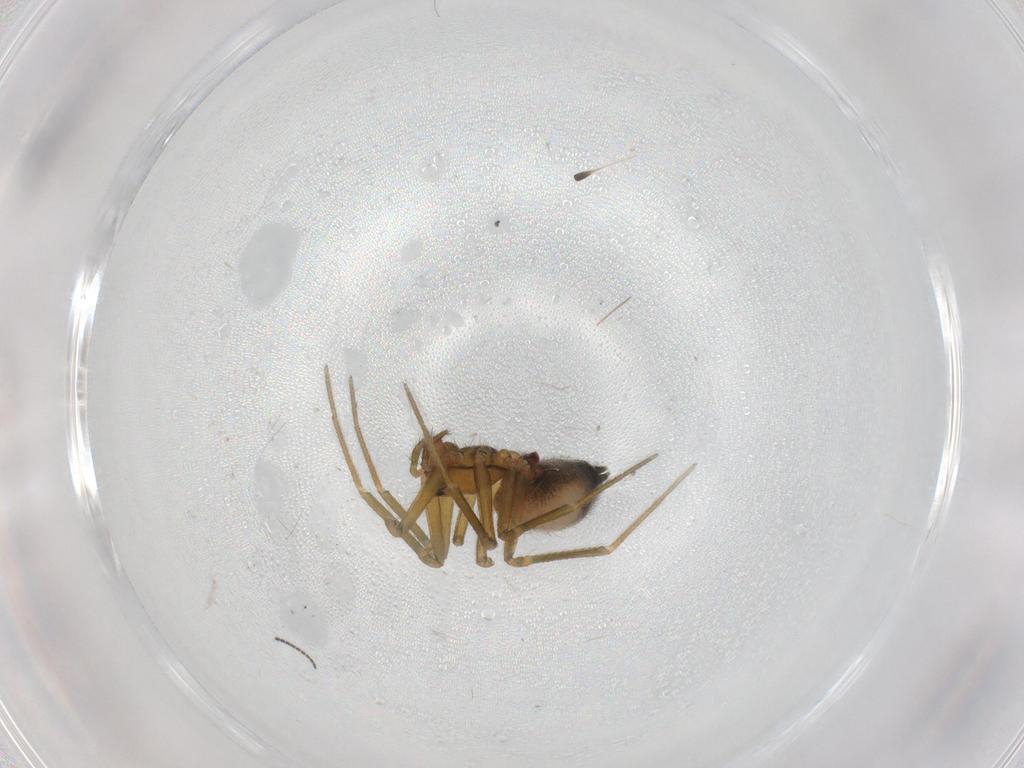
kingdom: Animalia
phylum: Arthropoda
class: Arachnida
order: Araneae
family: Linyphiidae
